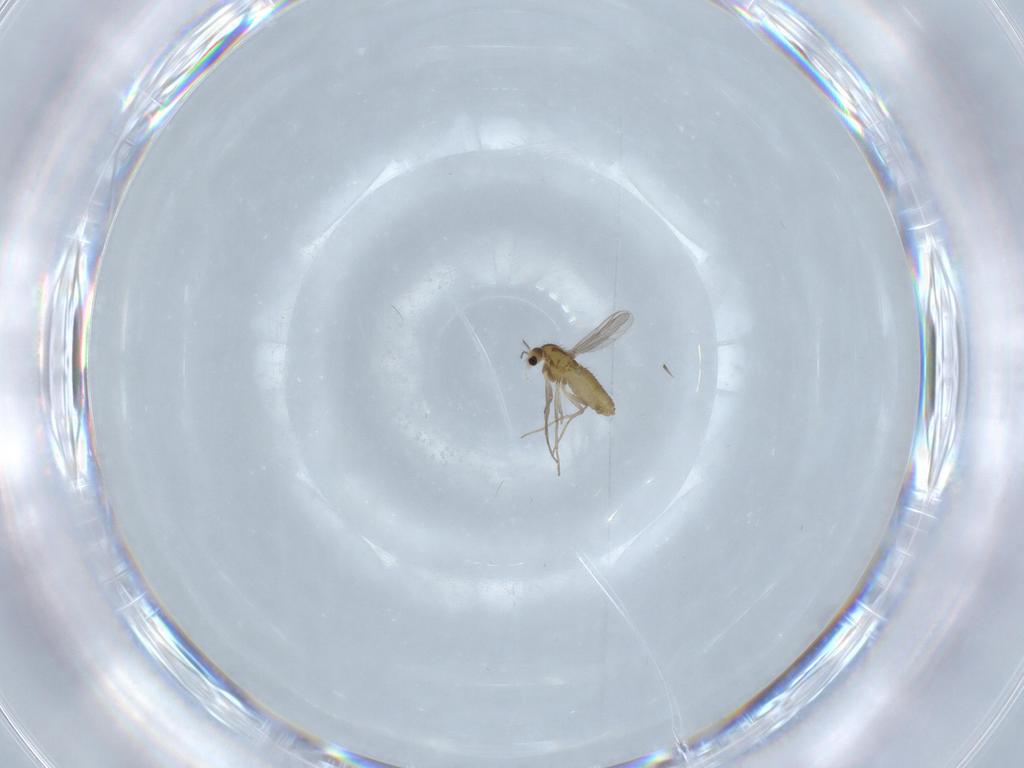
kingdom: Animalia
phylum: Arthropoda
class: Insecta
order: Diptera
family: Chironomidae
